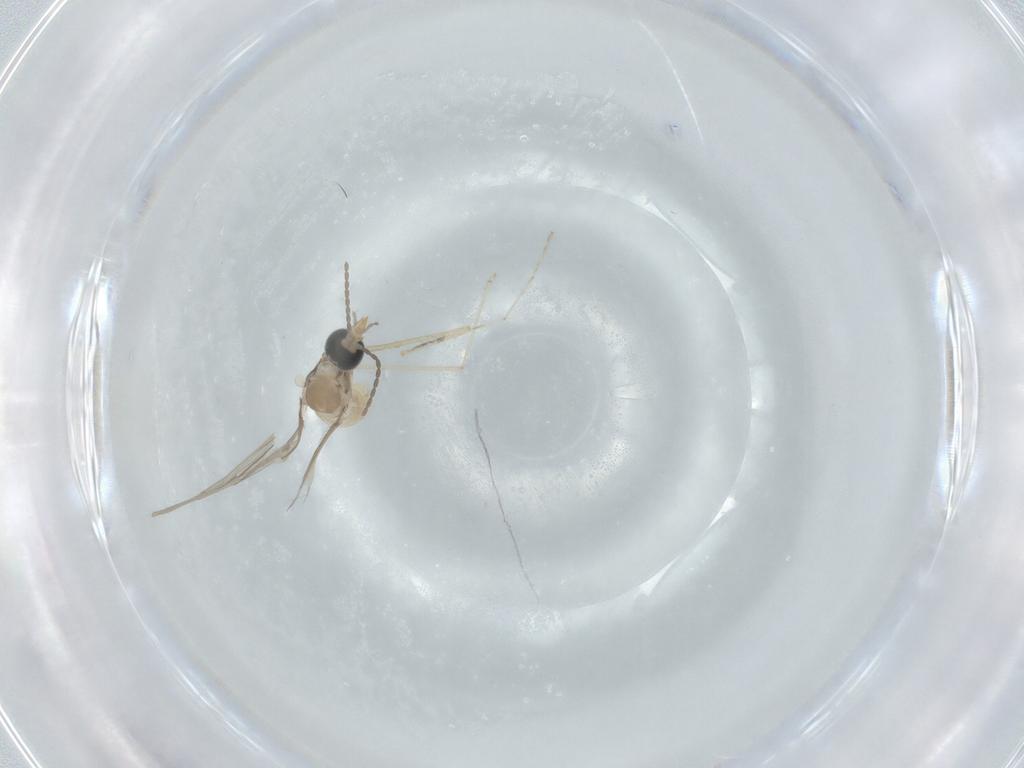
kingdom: Animalia
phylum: Arthropoda
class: Insecta
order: Diptera
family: Cecidomyiidae
